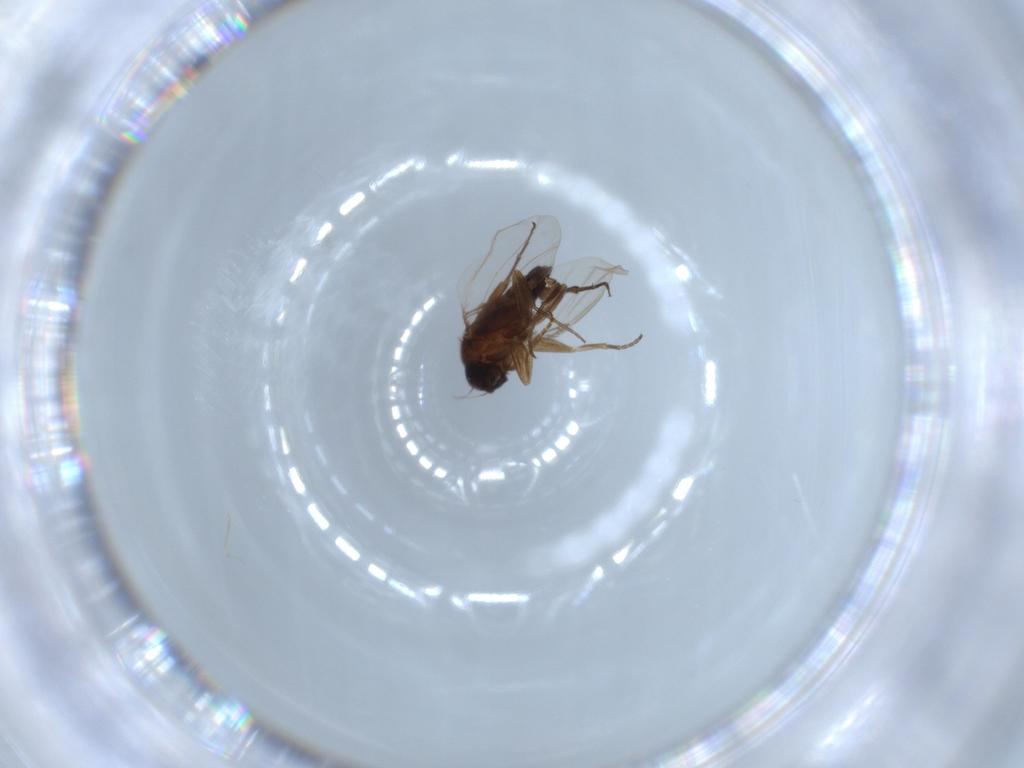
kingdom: Animalia
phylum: Arthropoda
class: Insecta
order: Diptera
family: Phoridae
